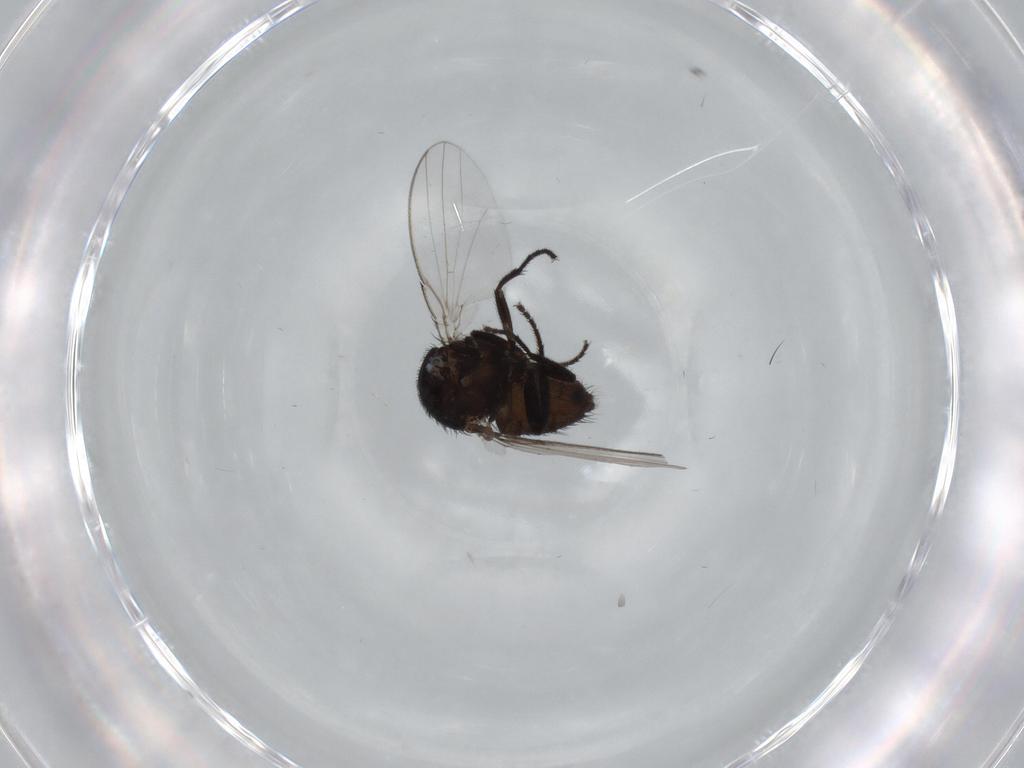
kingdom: Animalia
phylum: Arthropoda
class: Insecta
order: Diptera
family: Milichiidae
